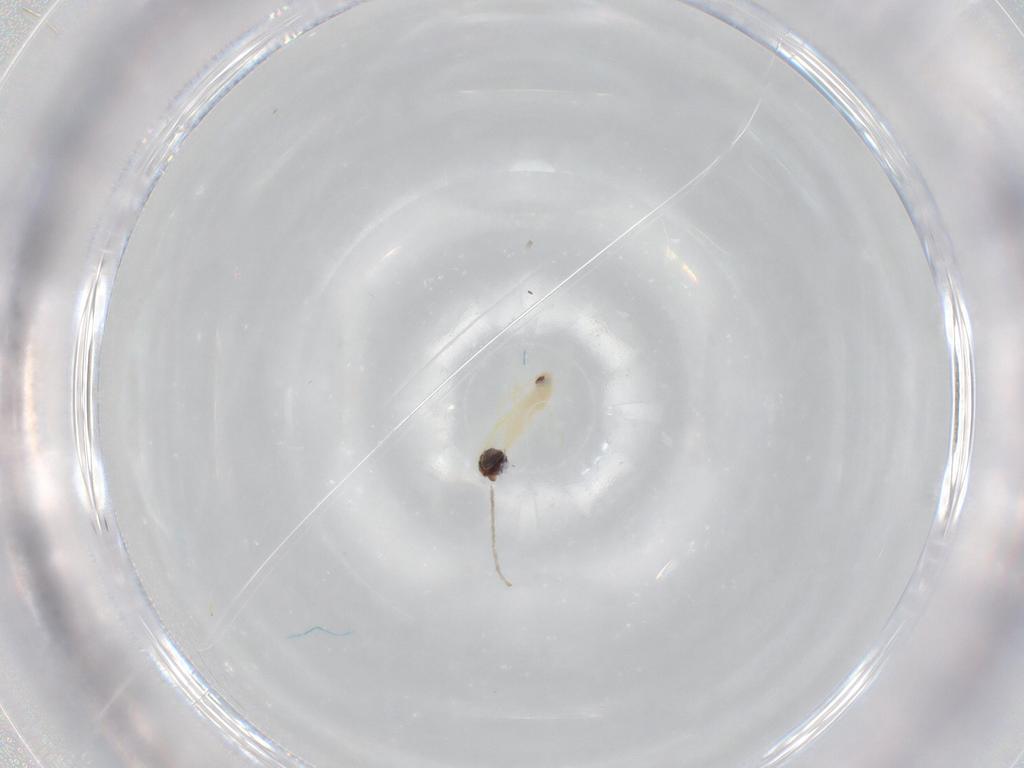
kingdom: Animalia
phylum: Arthropoda
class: Insecta
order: Hemiptera
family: Aleyrodidae
